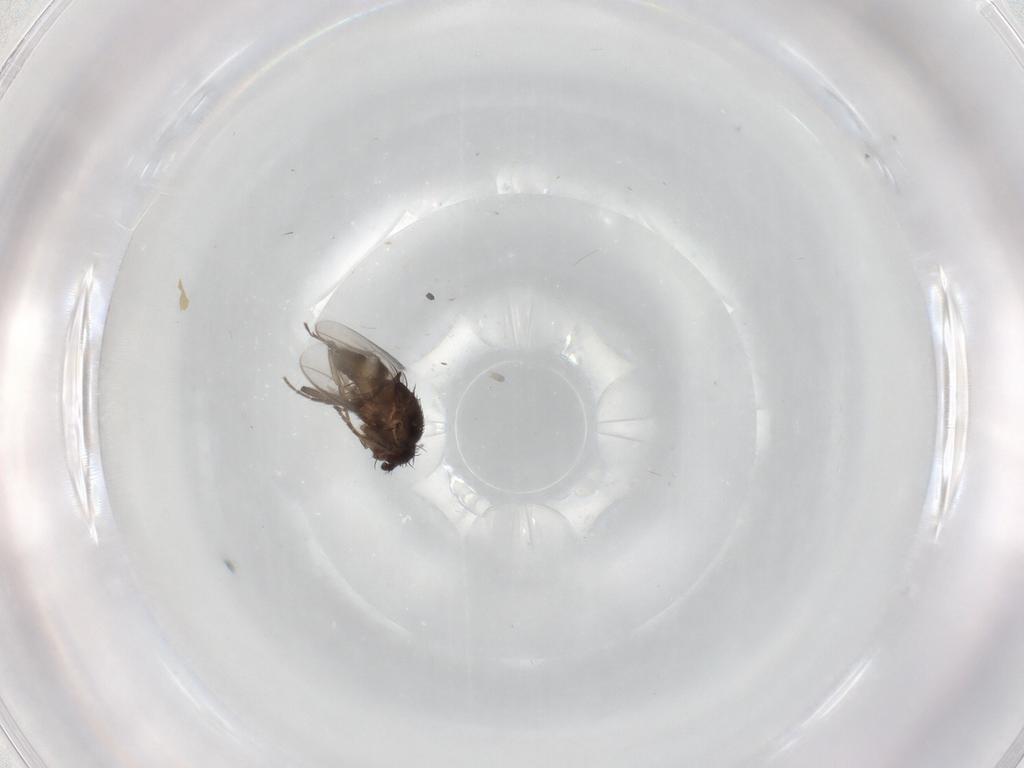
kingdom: Animalia
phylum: Arthropoda
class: Insecta
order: Diptera
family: Sphaeroceridae
